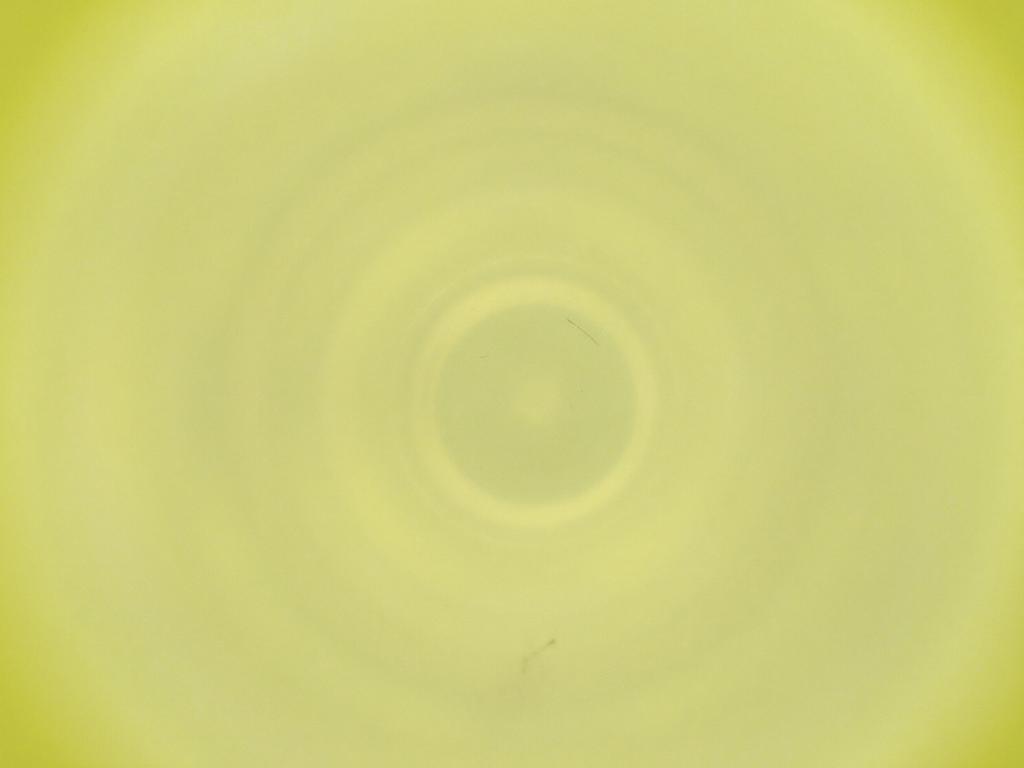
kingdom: Animalia
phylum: Arthropoda
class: Insecta
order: Diptera
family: Cecidomyiidae
